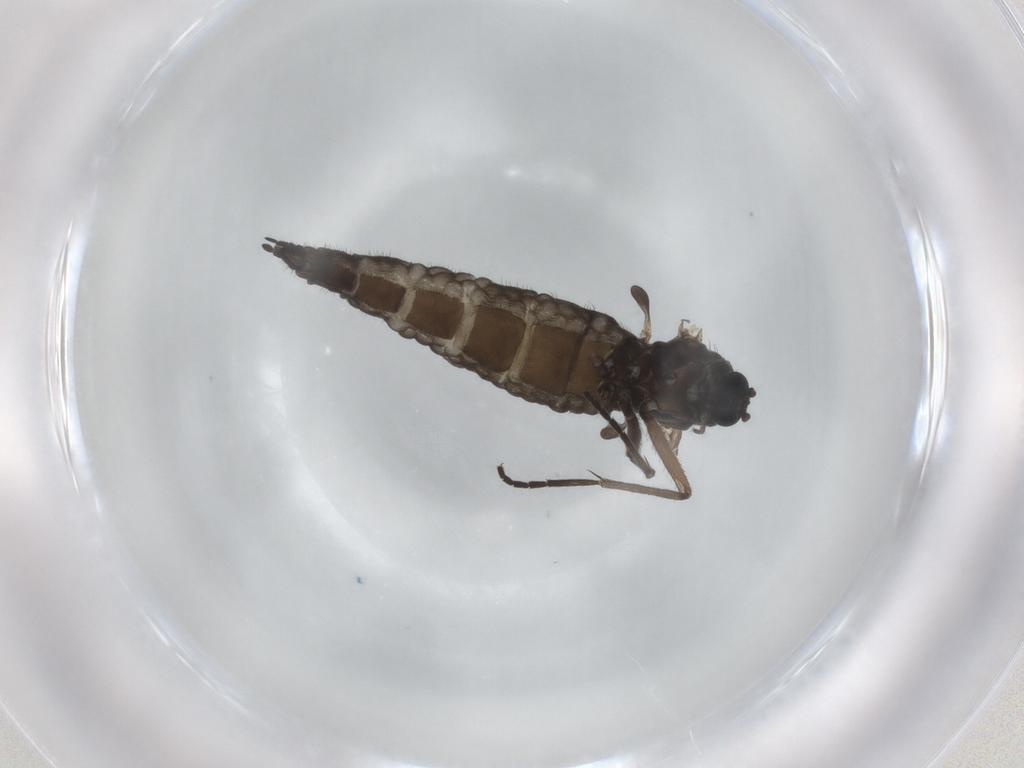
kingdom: Animalia
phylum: Arthropoda
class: Insecta
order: Diptera
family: Sciaridae
